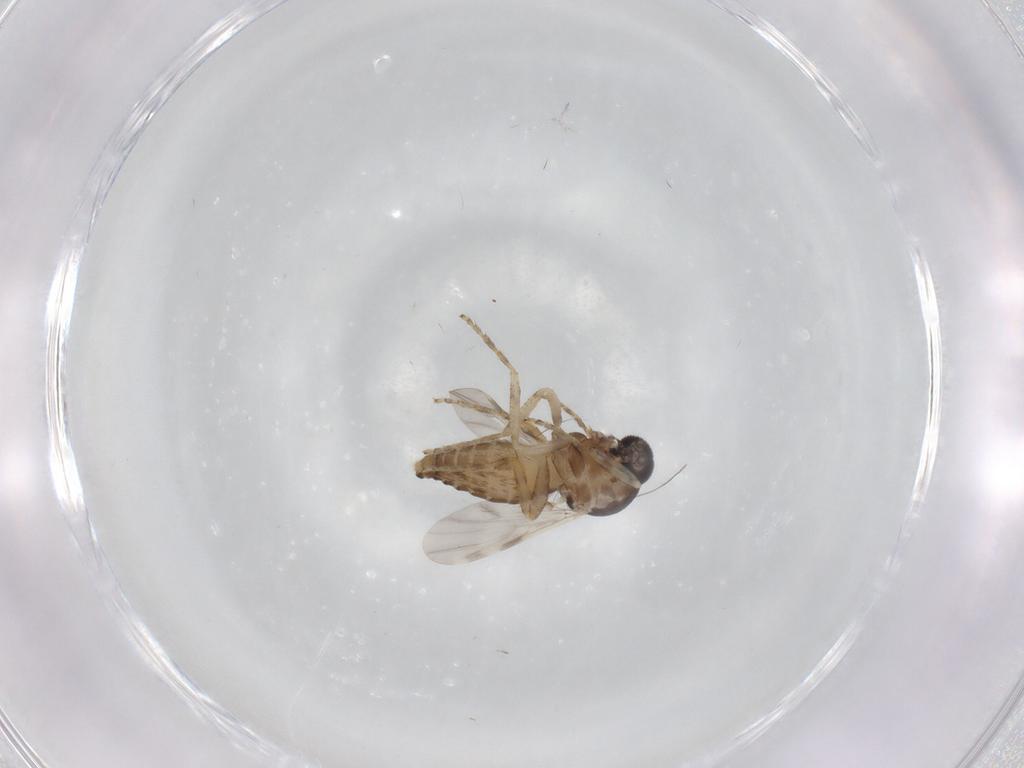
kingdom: Animalia
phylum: Arthropoda
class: Insecta
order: Diptera
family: Ceratopogonidae
